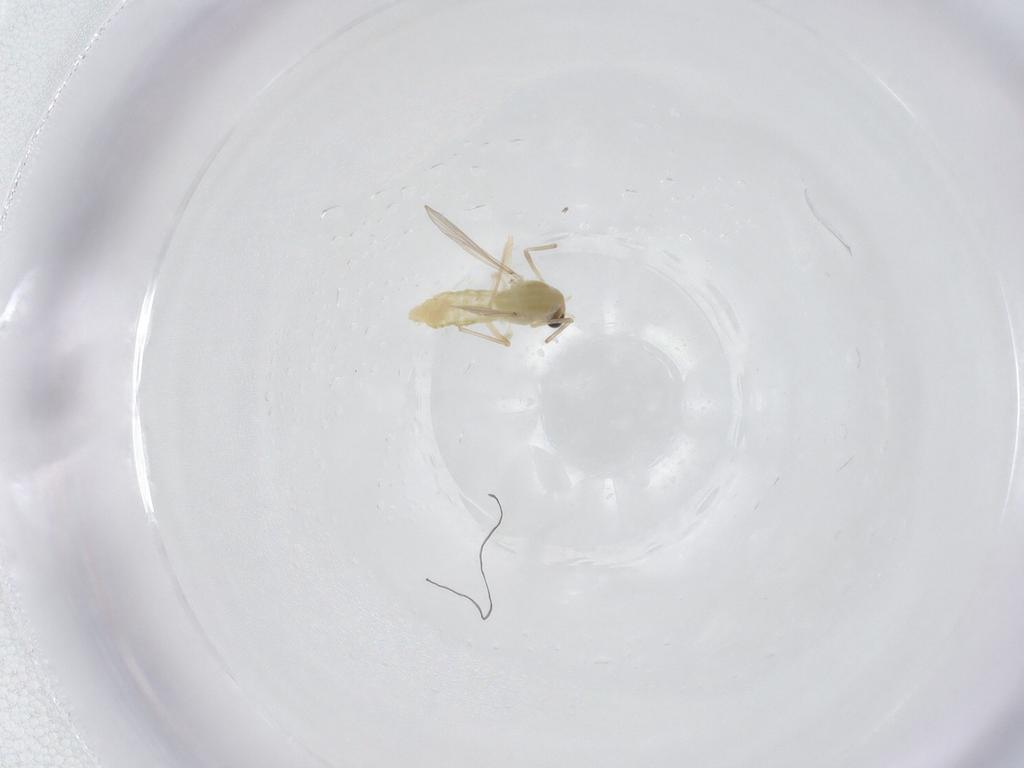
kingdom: Animalia
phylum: Arthropoda
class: Insecta
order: Diptera
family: Chironomidae
